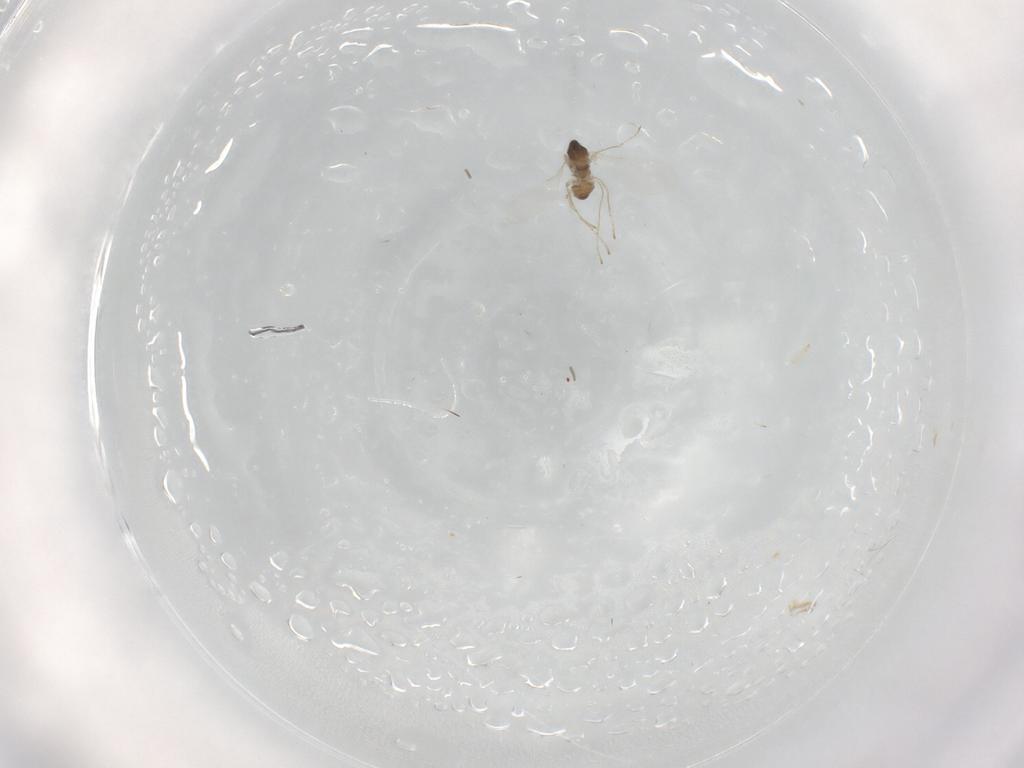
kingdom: Animalia
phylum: Arthropoda
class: Insecta
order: Diptera
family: Cecidomyiidae
